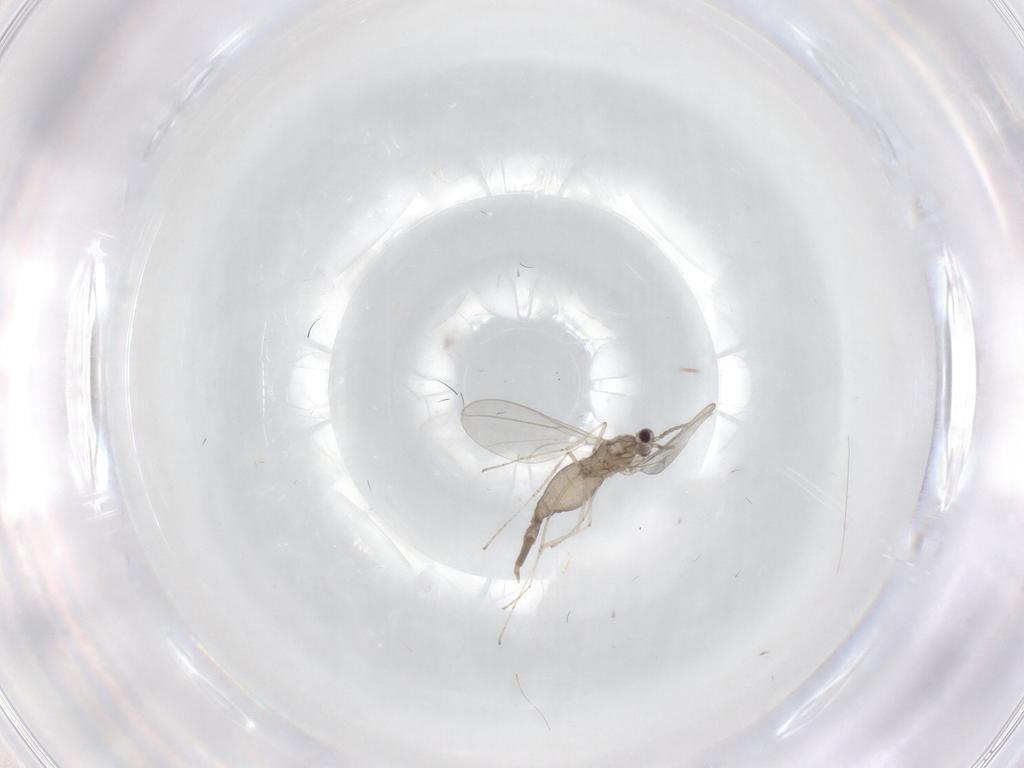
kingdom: Animalia
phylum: Arthropoda
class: Insecta
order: Diptera
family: Cecidomyiidae
